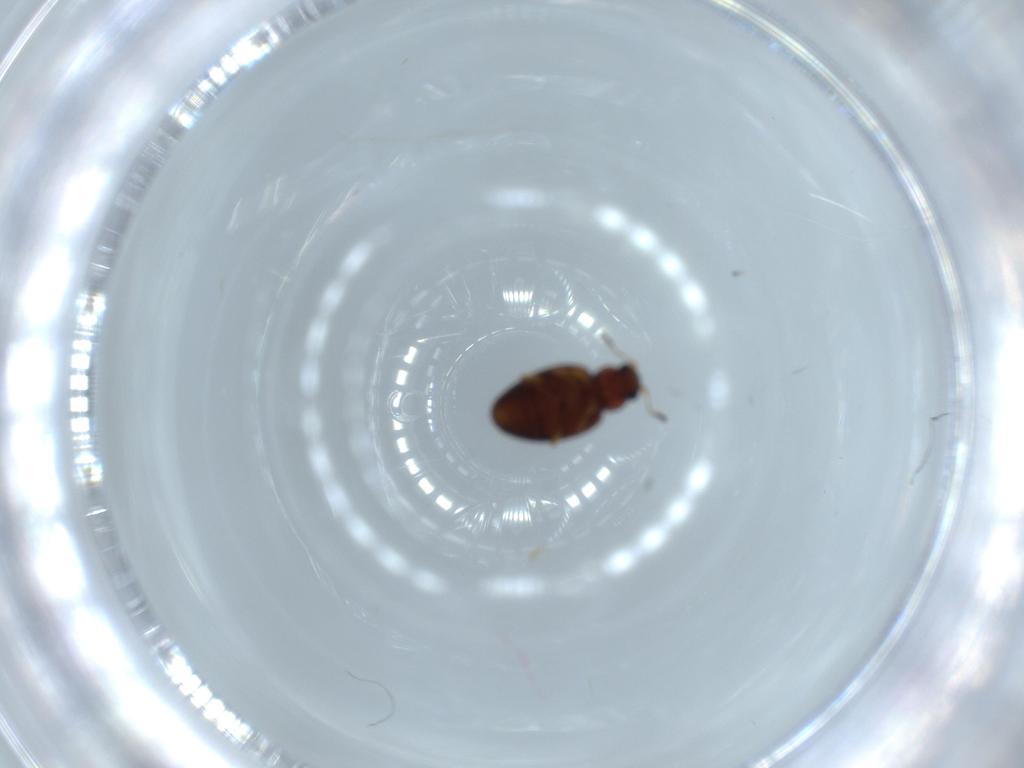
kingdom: Animalia
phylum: Arthropoda
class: Insecta
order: Coleoptera
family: Latridiidae
